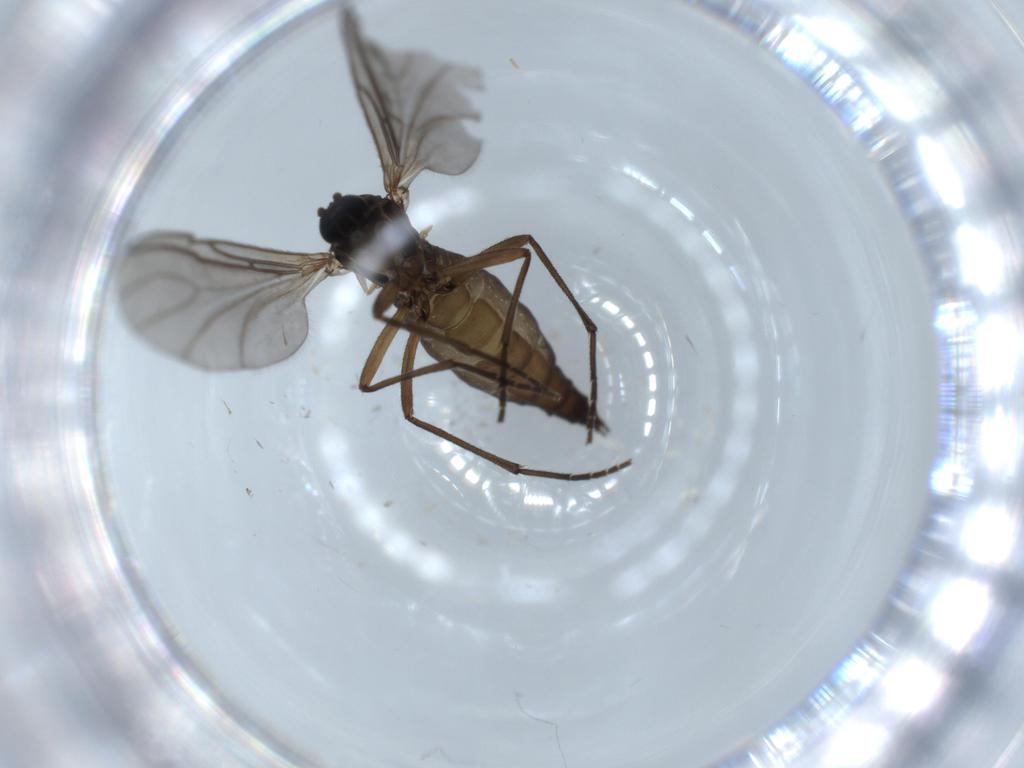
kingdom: Animalia
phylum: Arthropoda
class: Insecta
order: Diptera
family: Sciaridae
